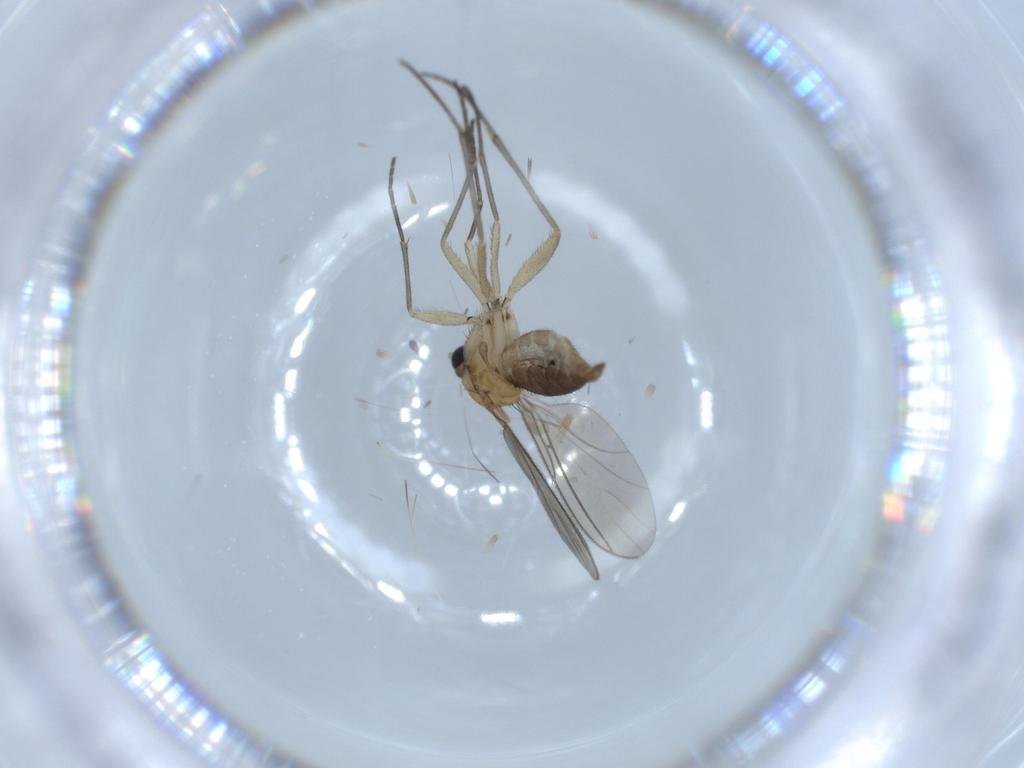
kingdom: Animalia
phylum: Arthropoda
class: Insecta
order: Diptera
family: Sciaridae
